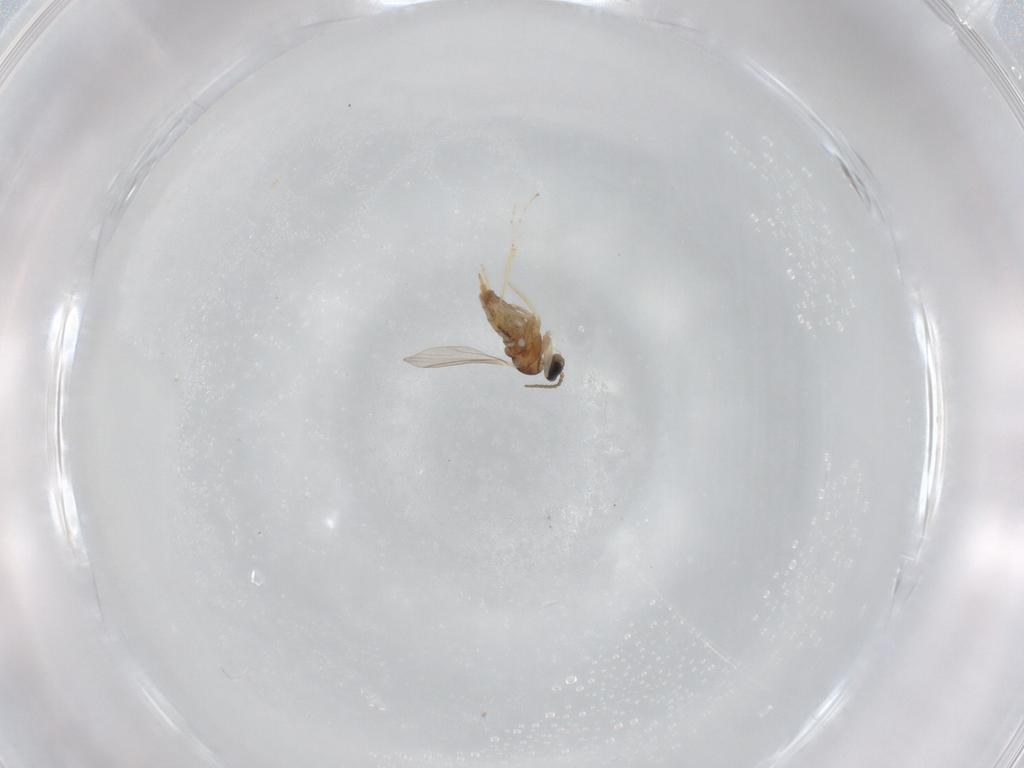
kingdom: Animalia
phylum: Arthropoda
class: Insecta
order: Diptera
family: Cecidomyiidae
